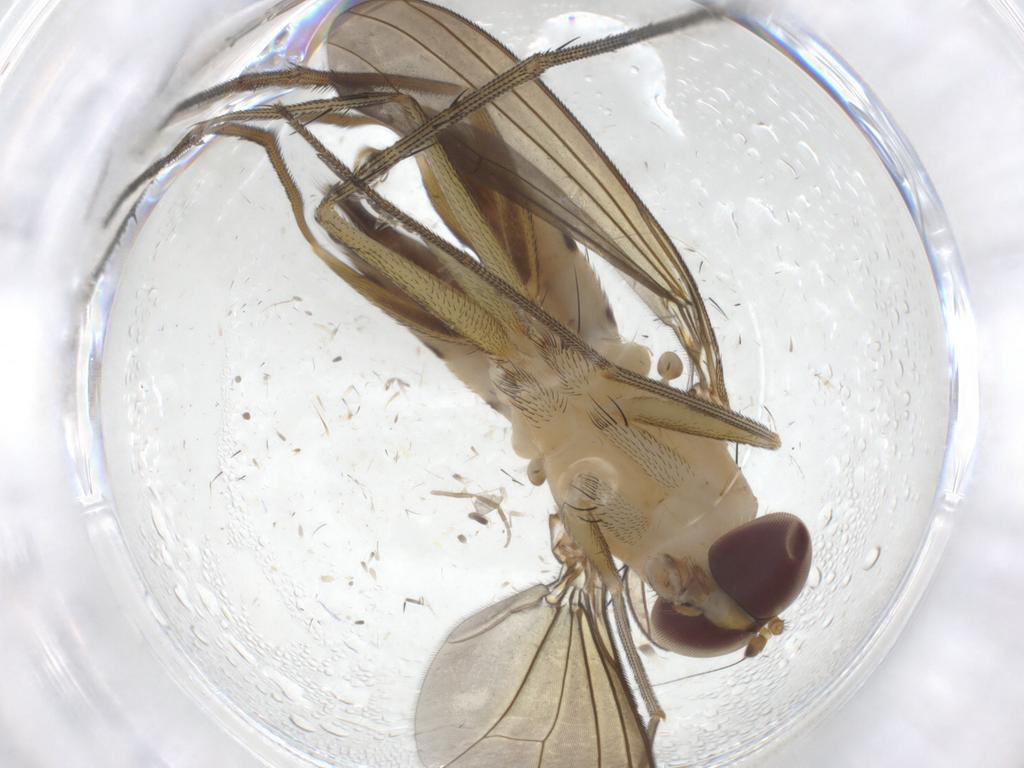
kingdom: Animalia
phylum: Arthropoda
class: Insecta
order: Diptera
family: Dolichopodidae
